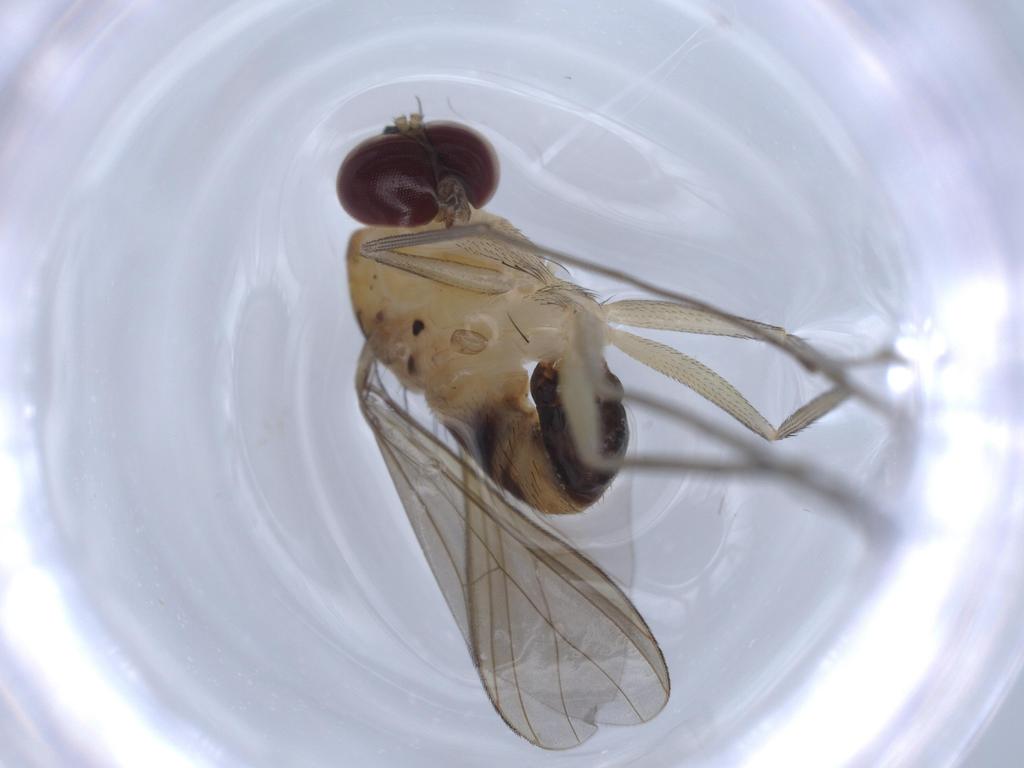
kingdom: Animalia
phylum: Arthropoda
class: Insecta
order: Diptera
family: Dolichopodidae
